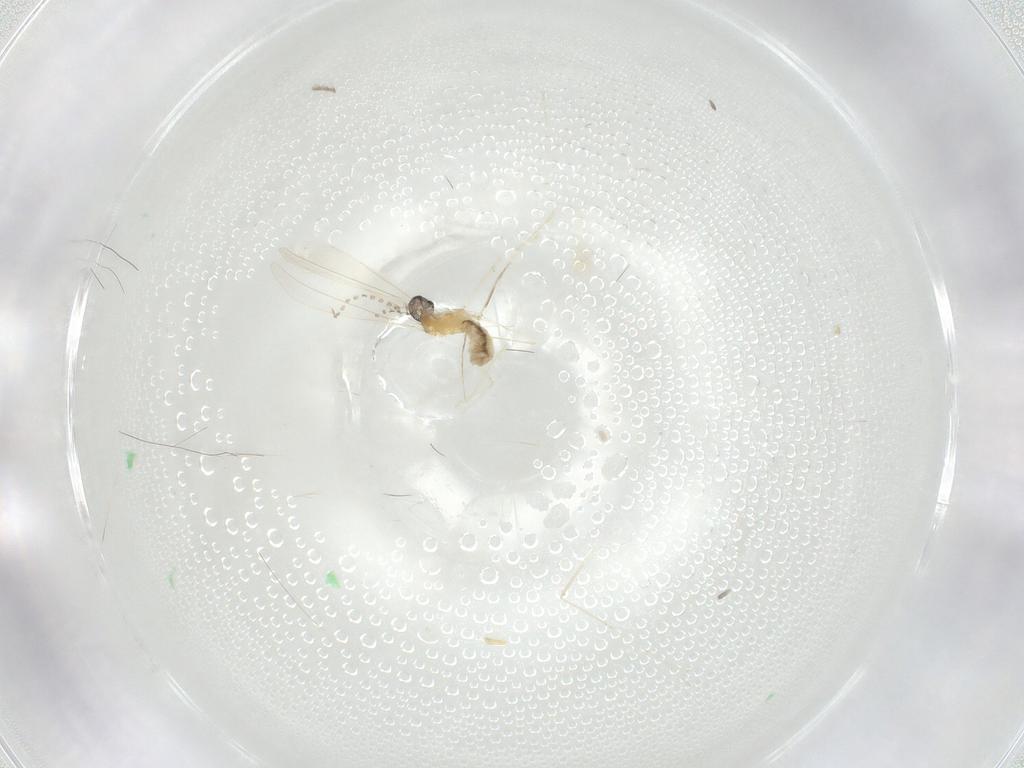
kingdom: Animalia
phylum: Arthropoda
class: Insecta
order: Diptera
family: Cecidomyiidae
